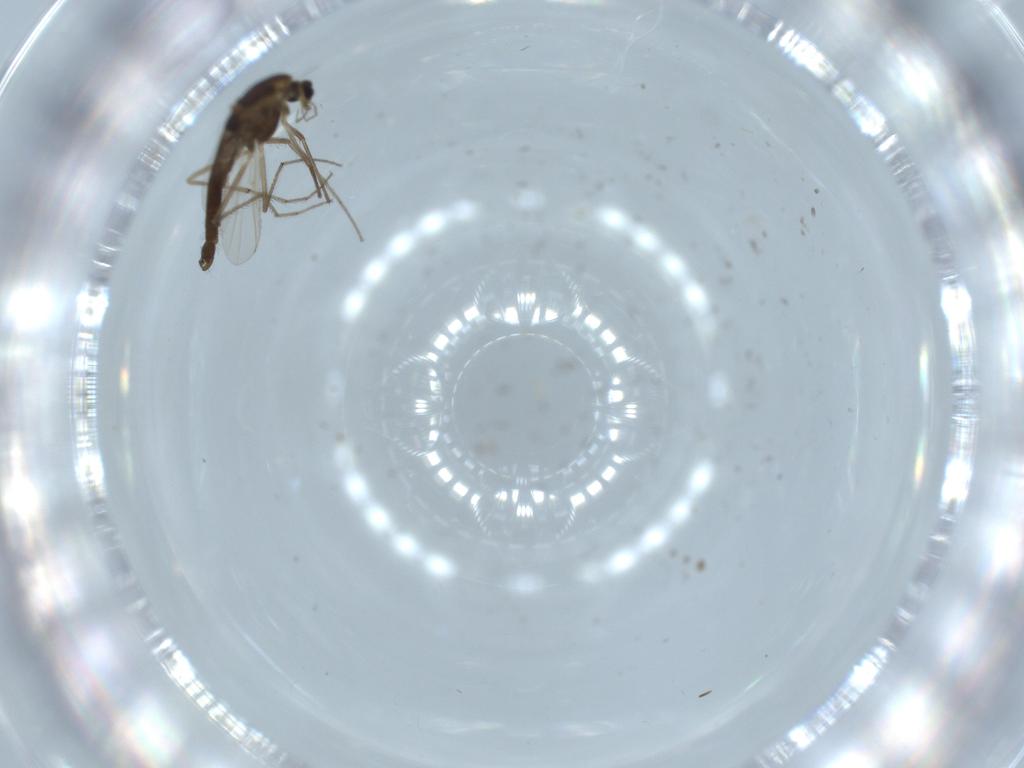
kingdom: Animalia
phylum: Arthropoda
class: Insecta
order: Diptera
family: Chironomidae
